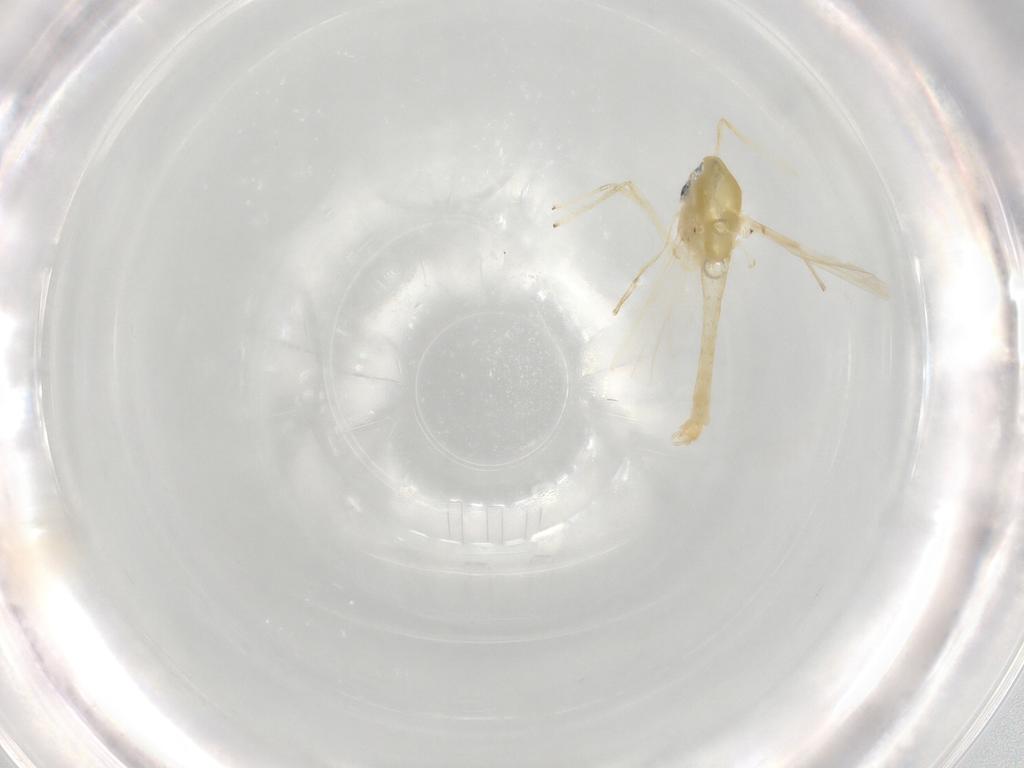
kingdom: Animalia
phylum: Arthropoda
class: Insecta
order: Diptera
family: Chironomidae
